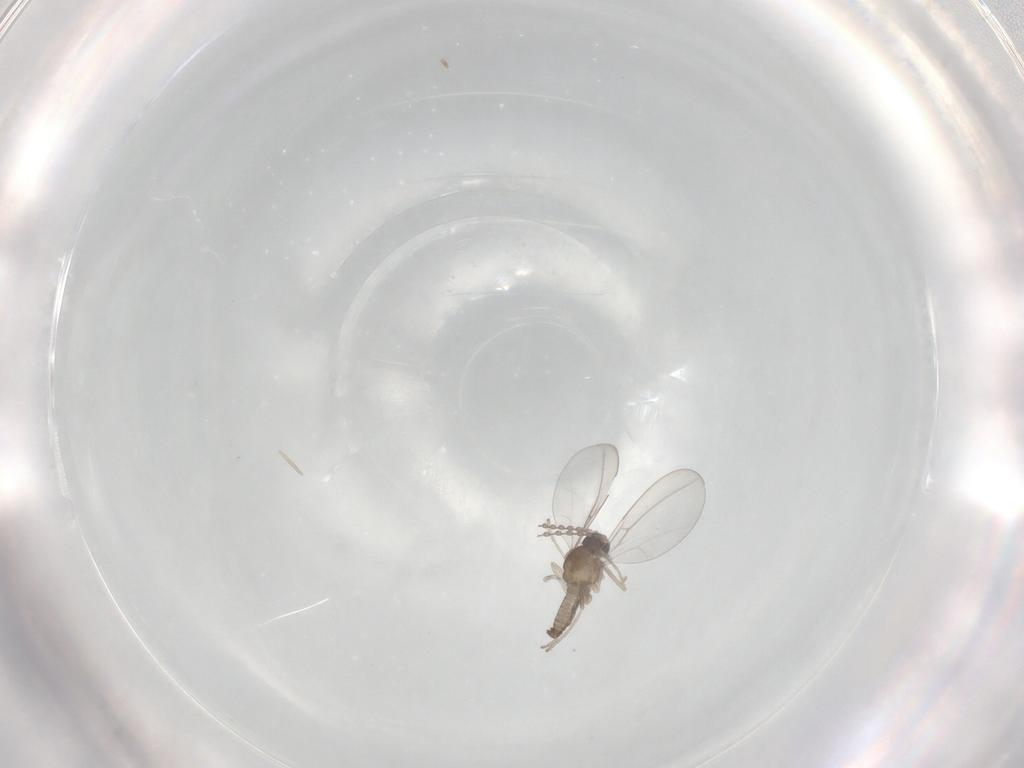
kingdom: Animalia
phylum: Arthropoda
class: Insecta
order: Diptera
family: Cecidomyiidae
